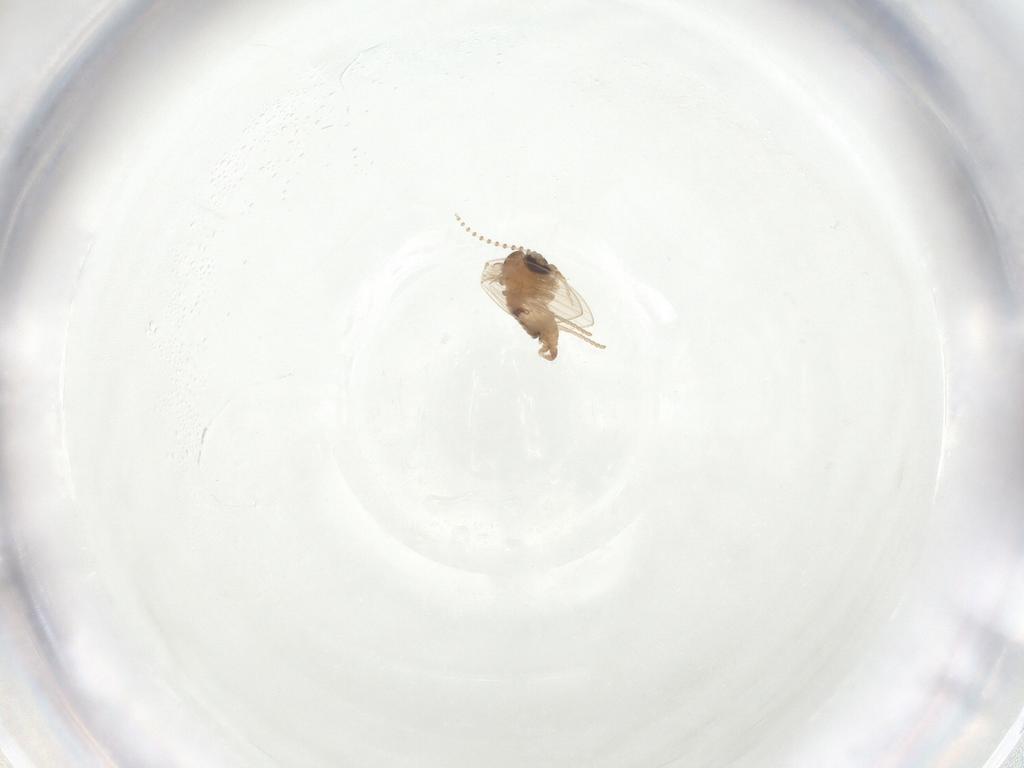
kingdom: Animalia
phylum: Arthropoda
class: Insecta
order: Diptera
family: Psychodidae
